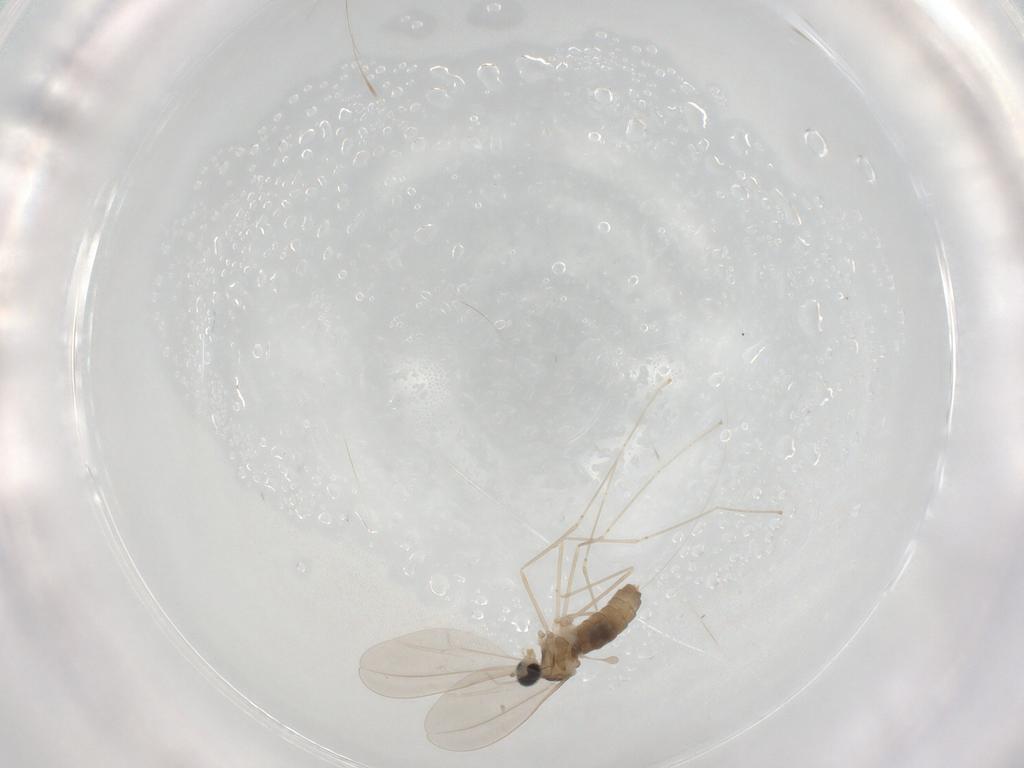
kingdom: Animalia
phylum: Arthropoda
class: Insecta
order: Diptera
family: Cecidomyiidae
